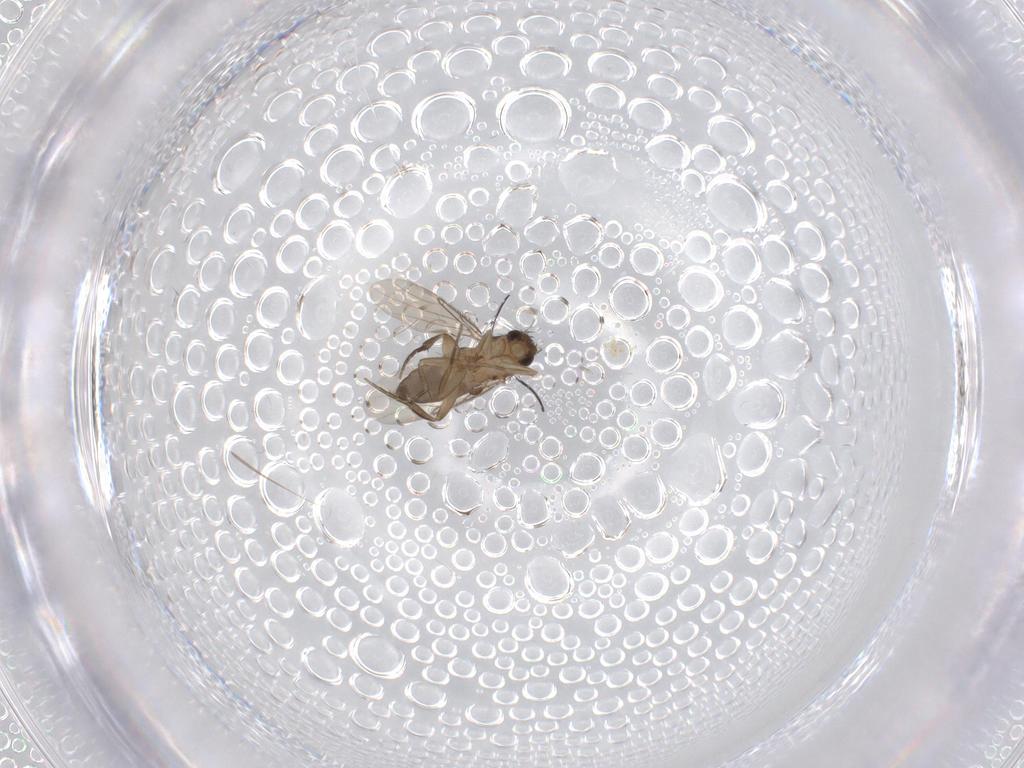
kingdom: Animalia
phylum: Arthropoda
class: Insecta
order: Diptera
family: Phoridae
